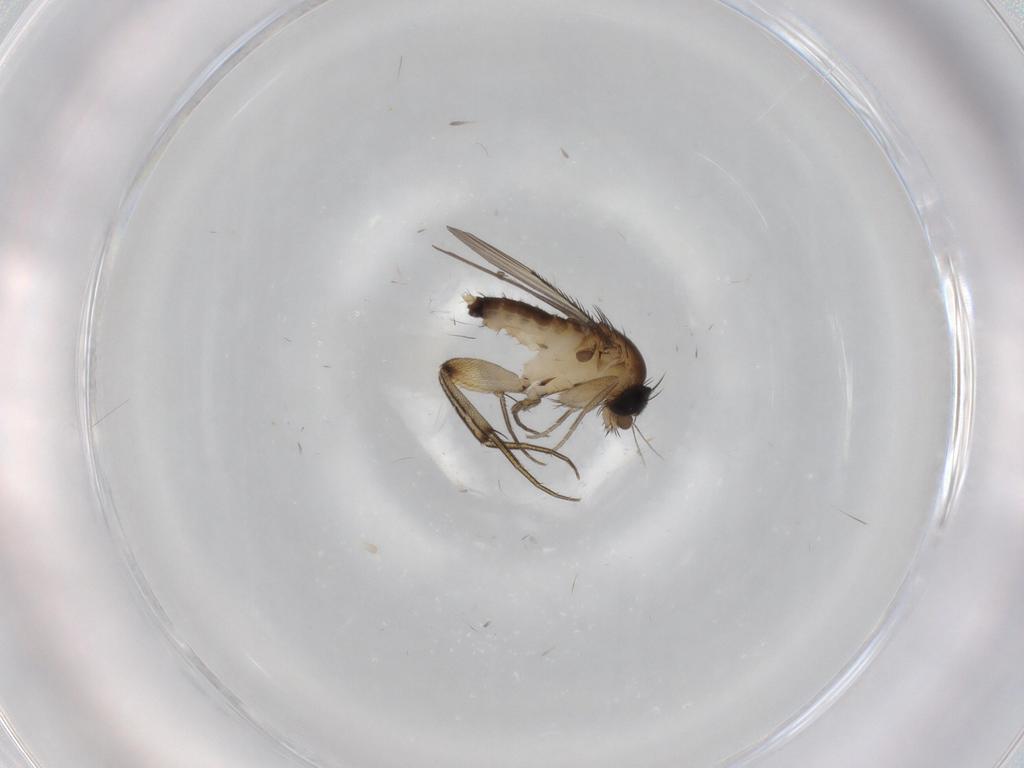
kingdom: Animalia
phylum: Arthropoda
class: Insecta
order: Diptera
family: Phoridae
